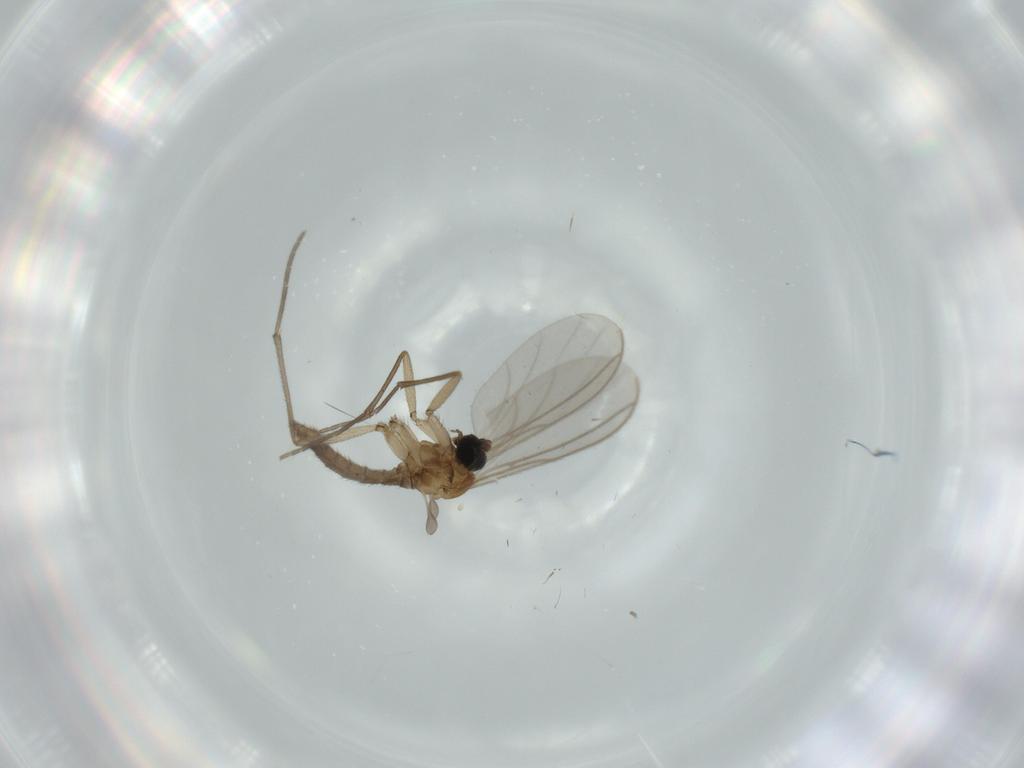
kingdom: Animalia
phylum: Arthropoda
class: Insecta
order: Diptera
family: Sciaridae
